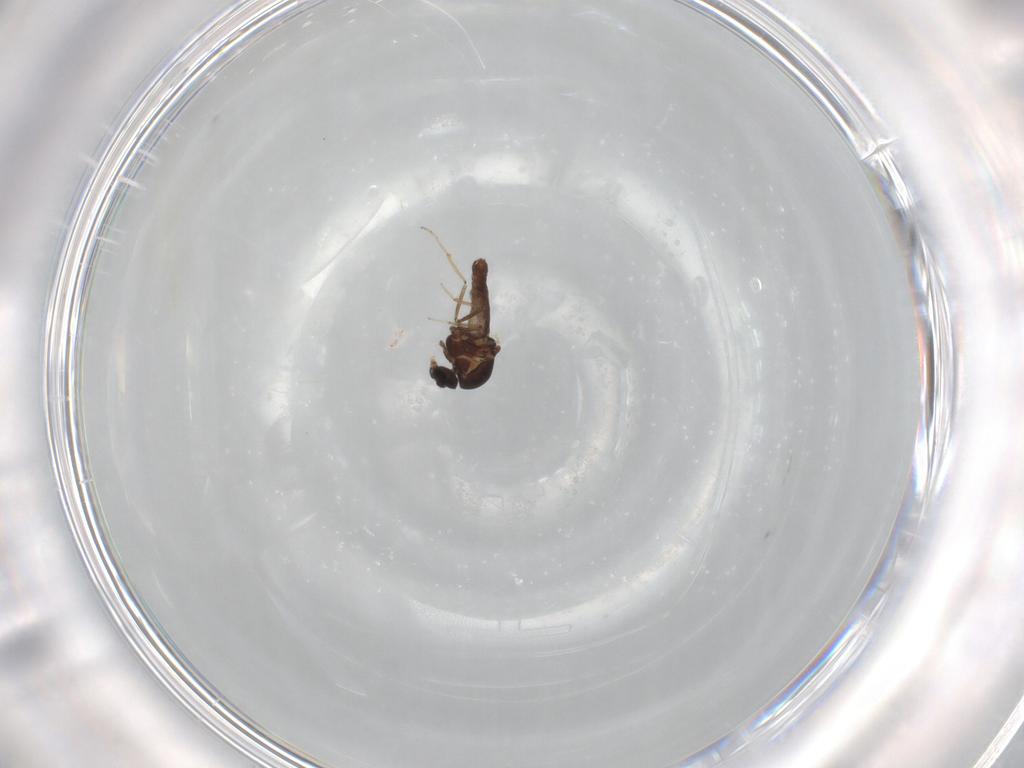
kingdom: Animalia
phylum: Arthropoda
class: Insecta
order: Diptera
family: Ceratopogonidae
